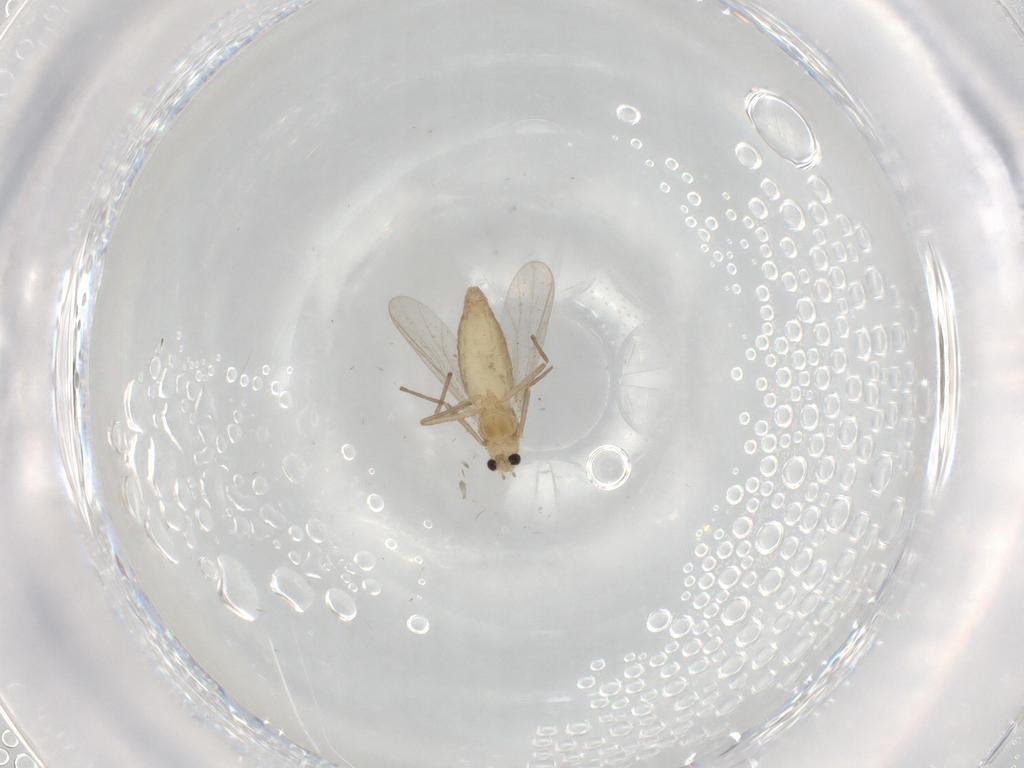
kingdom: Animalia
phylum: Arthropoda
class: Insecta
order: Diptera
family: Chironomidae
